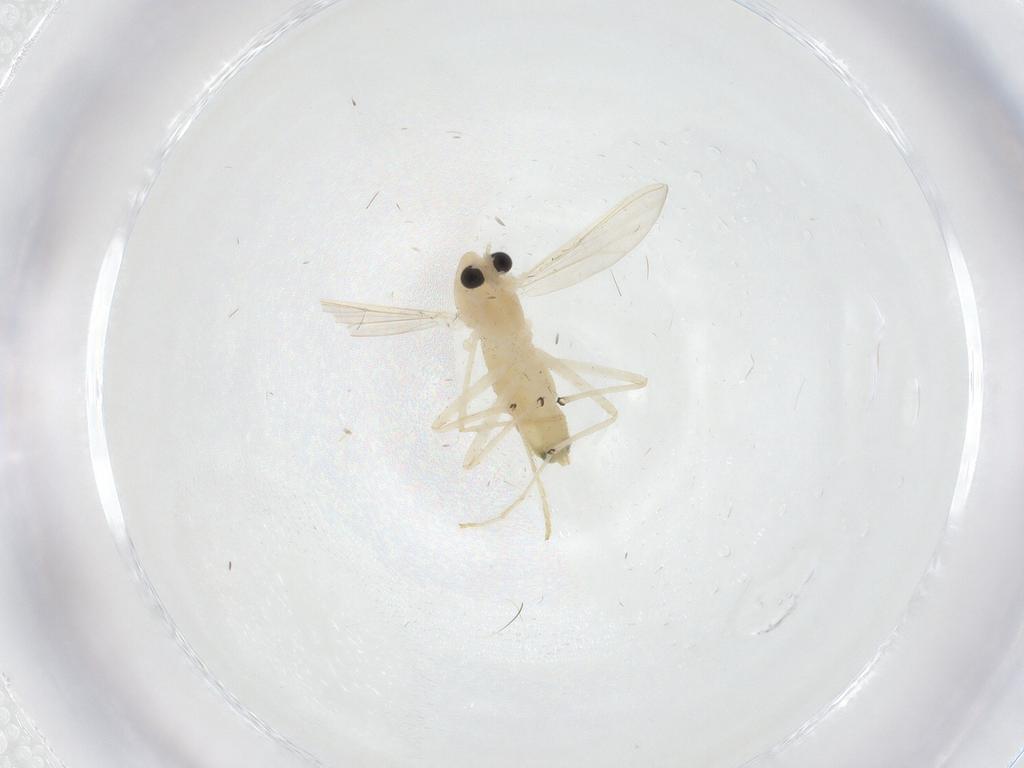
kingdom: Animalia
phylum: Arthropoda
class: Insecta
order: Diptera
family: Chironomidae
